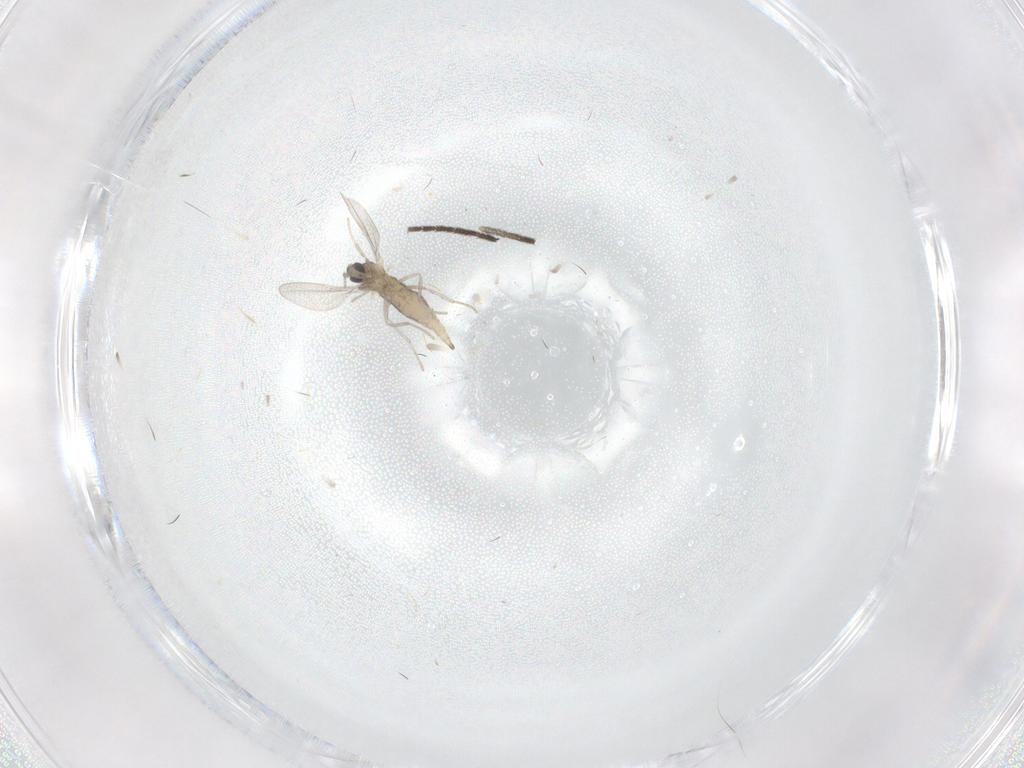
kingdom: Animalia
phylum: Arthropoda
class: Insecta
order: Diptera
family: Cecidomyiidae
